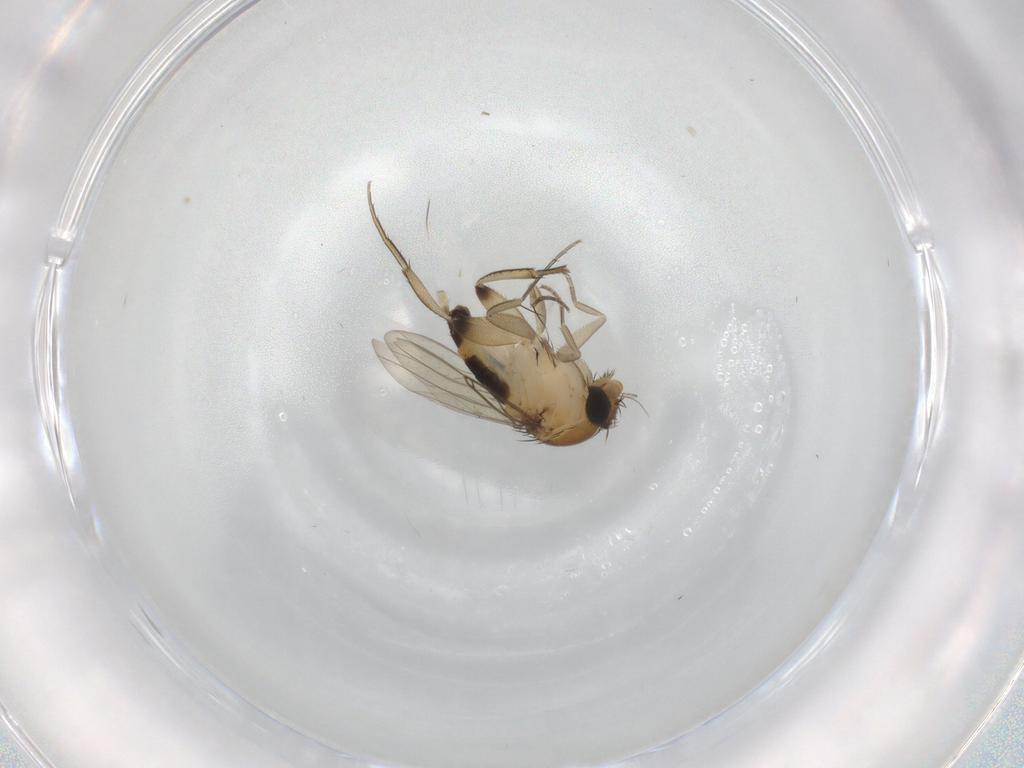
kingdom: Animalia
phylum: Arthropoda
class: Insecta
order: Diptera
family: Phoridae
